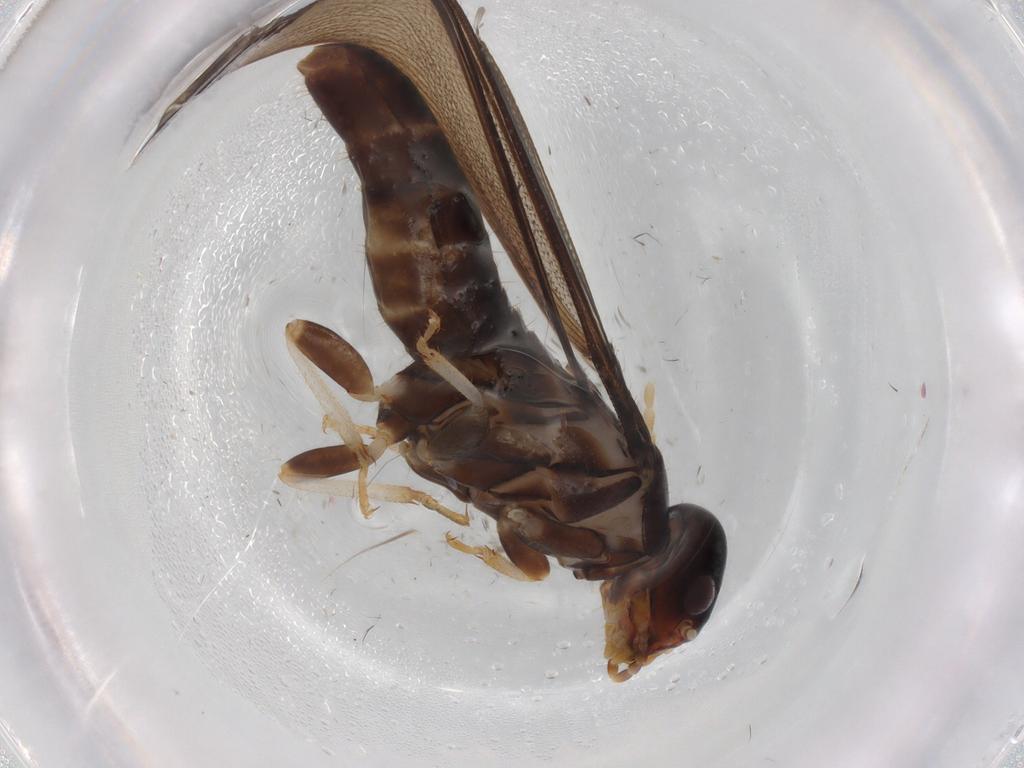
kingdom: Animalia
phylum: Arthropoda
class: Insecta
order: Blattodea
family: Kalotermitidae
